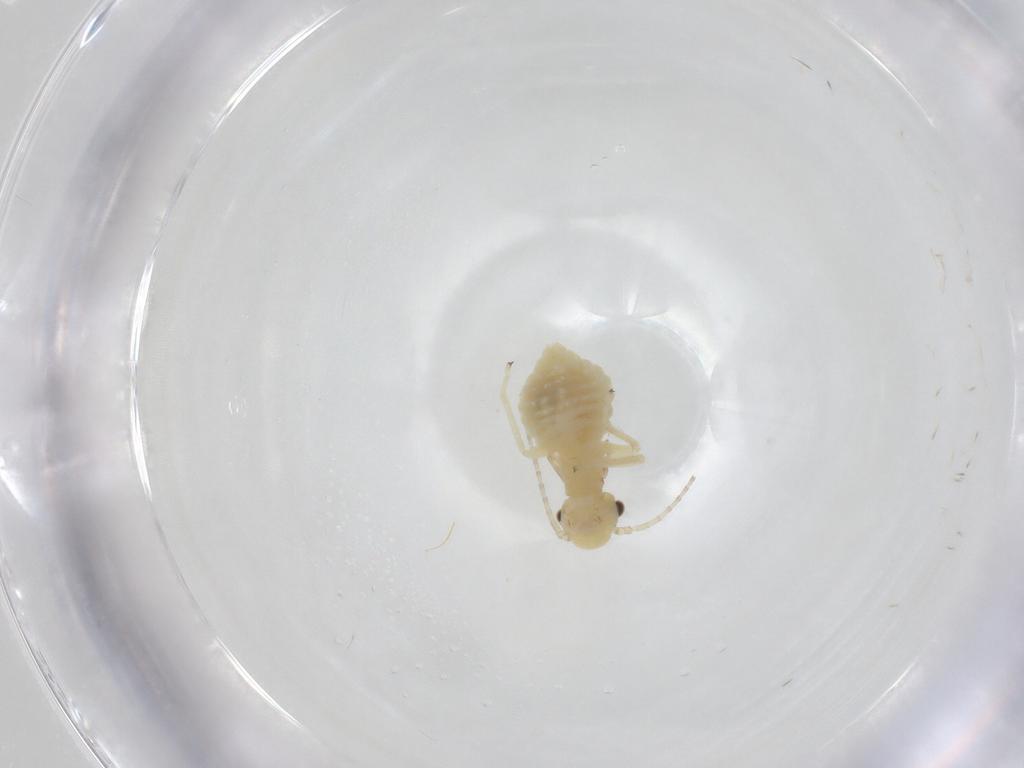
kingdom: Animalia
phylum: Arthropoda
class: Insecta
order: Psocodea
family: Amphipsocidae
